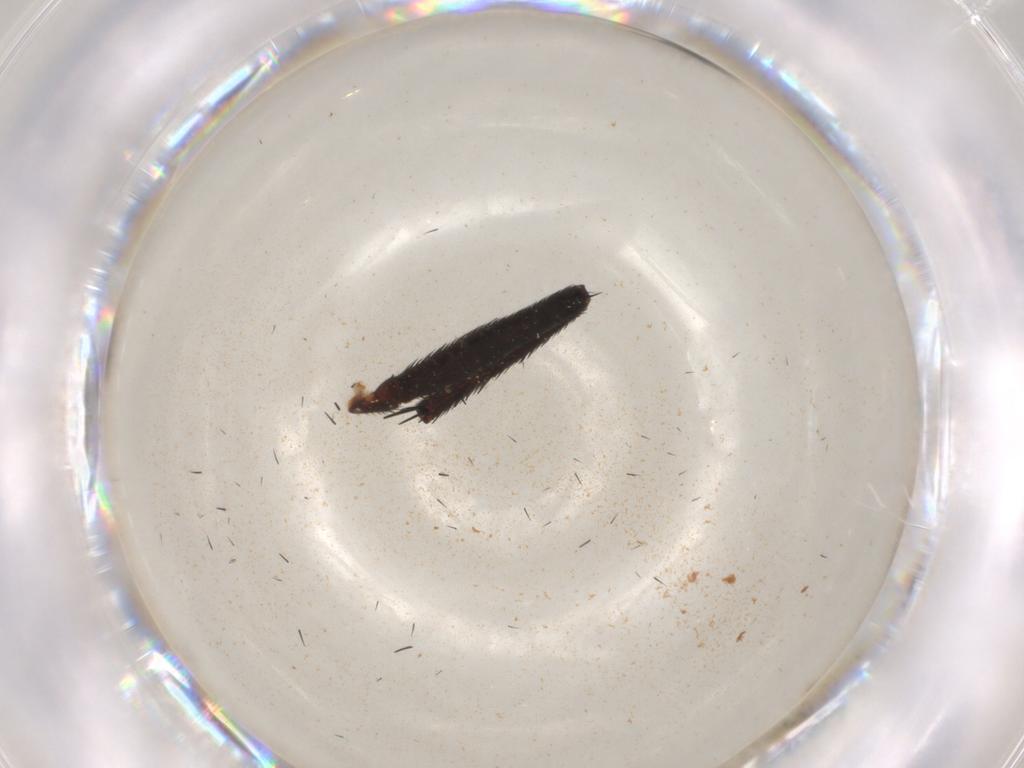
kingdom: Animalia
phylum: Arthropoda
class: Insecta
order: Diptera
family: Muscidae
